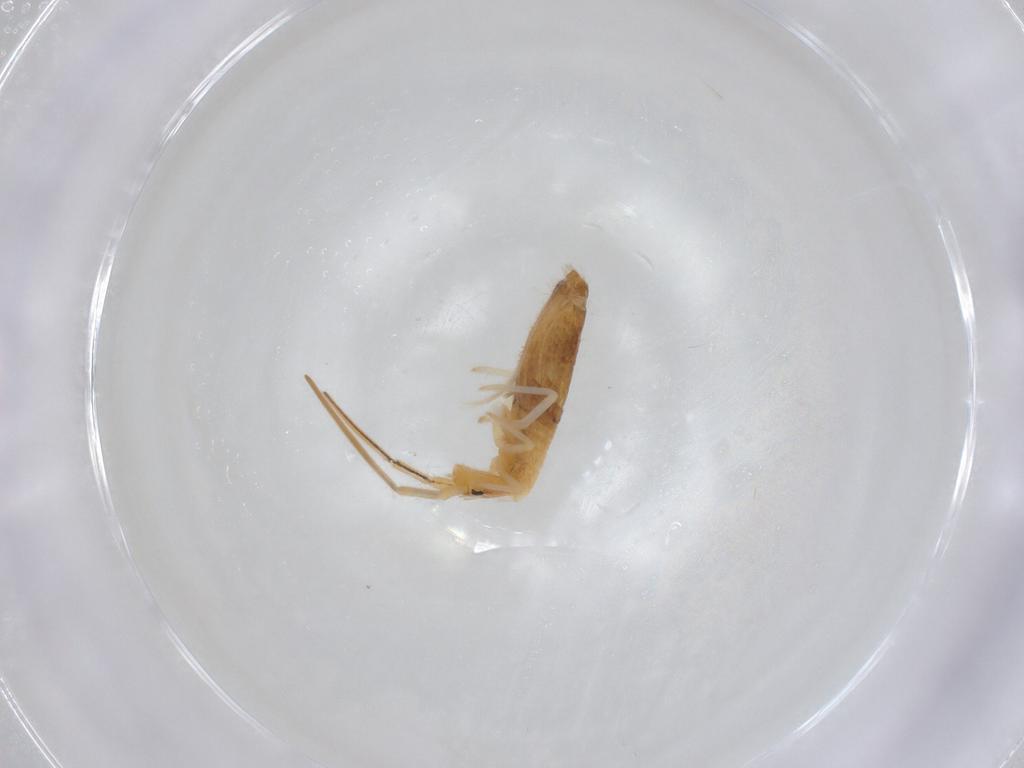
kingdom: Animalia
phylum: Arthropoda
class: Collembola
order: Entomobryomorpha
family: Entomobryidae
